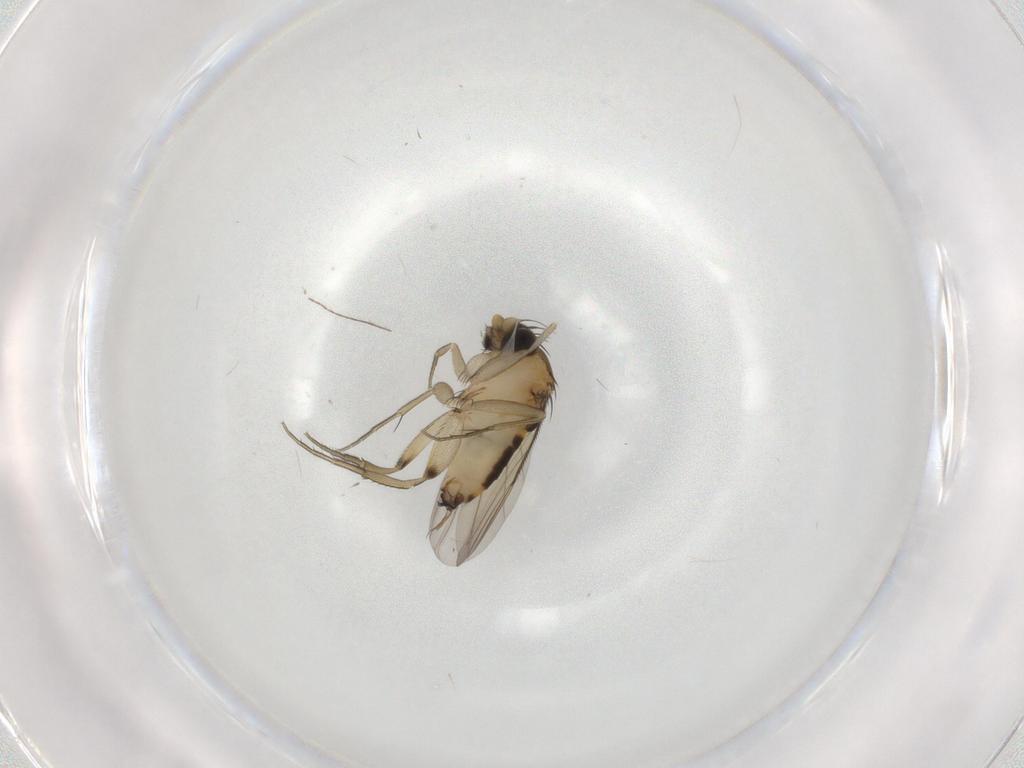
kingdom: Animalia
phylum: Arthropoda
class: Insecta
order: Diptera
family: Phoridae
